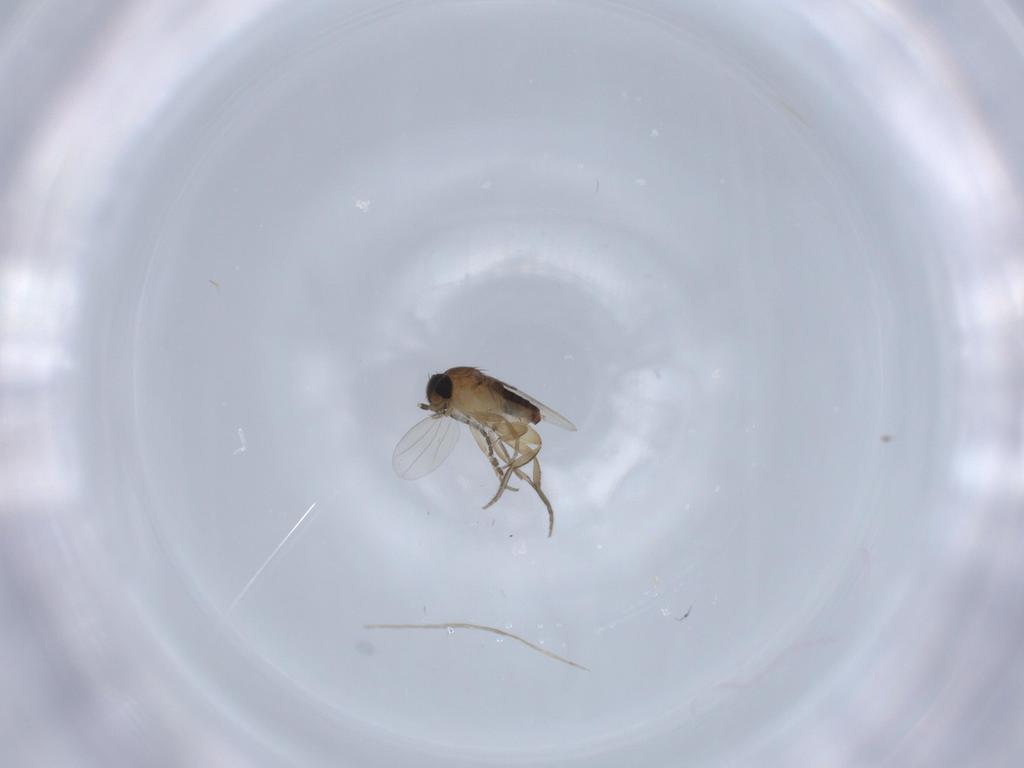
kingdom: Animalia
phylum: Arthropoda
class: Insecta
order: Diptera
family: Phoridae
